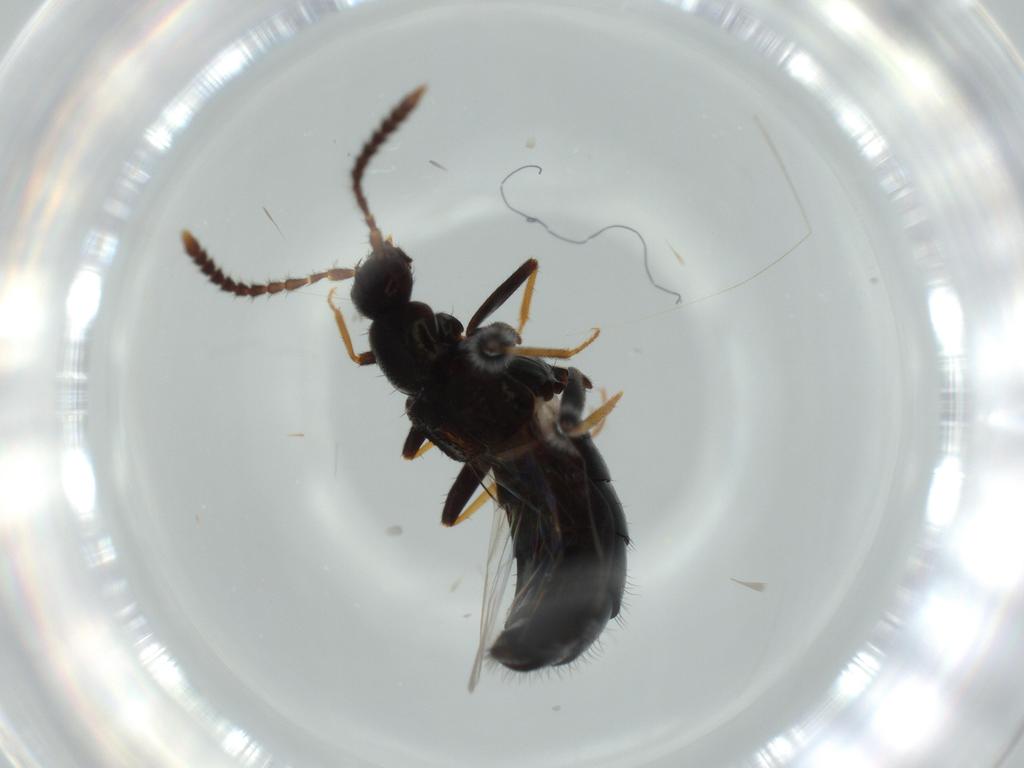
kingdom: Animalia
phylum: Arthropoda
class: Insecta
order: Coleoptera
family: Staphylinidae
